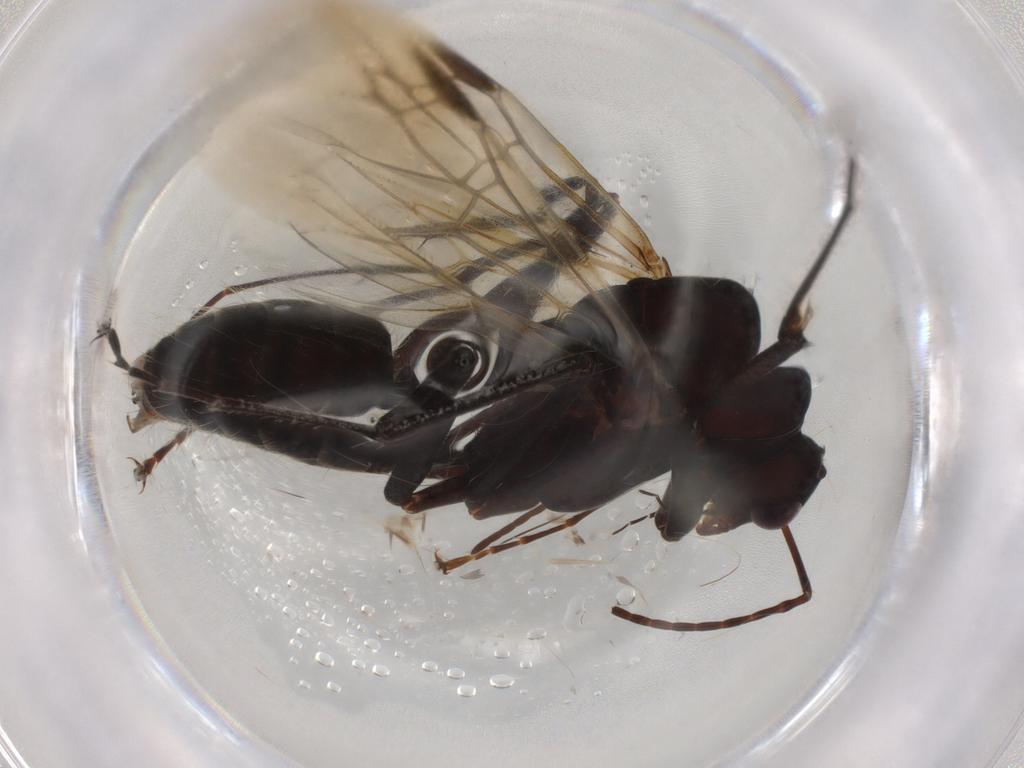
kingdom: Animalia
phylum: Arthropoda
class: Insecta
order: Hymenoptera
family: Formicidae
